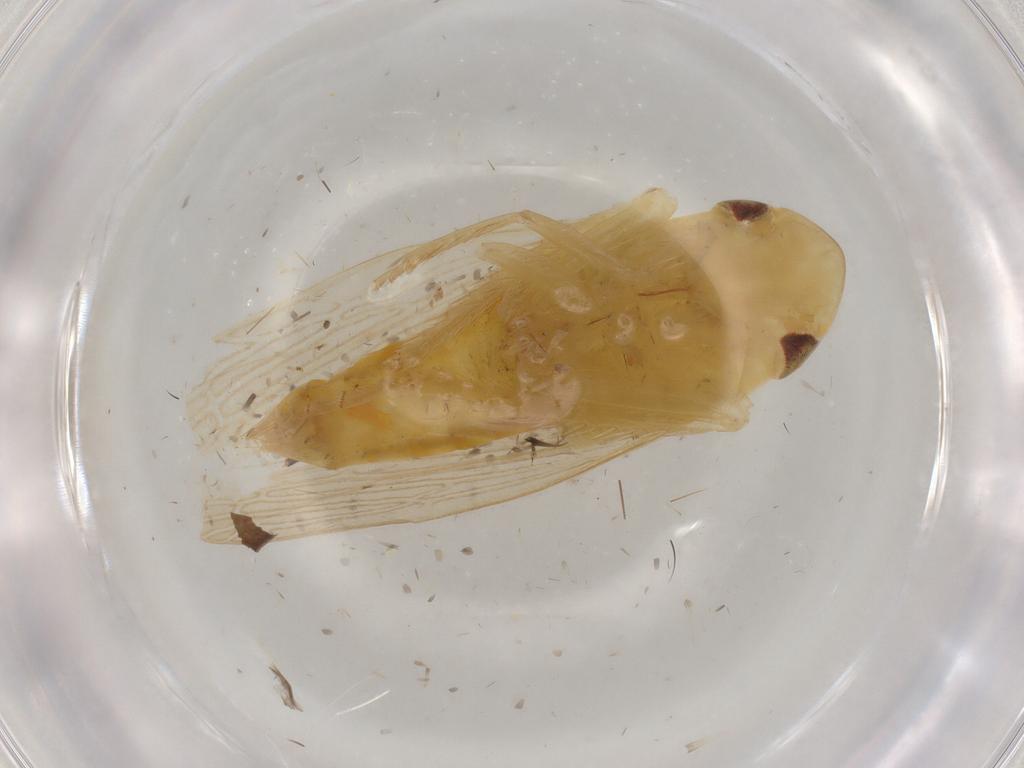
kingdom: Animalia
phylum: Arthropoda
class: Insecta
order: Hemiptera
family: Cicadellidae
